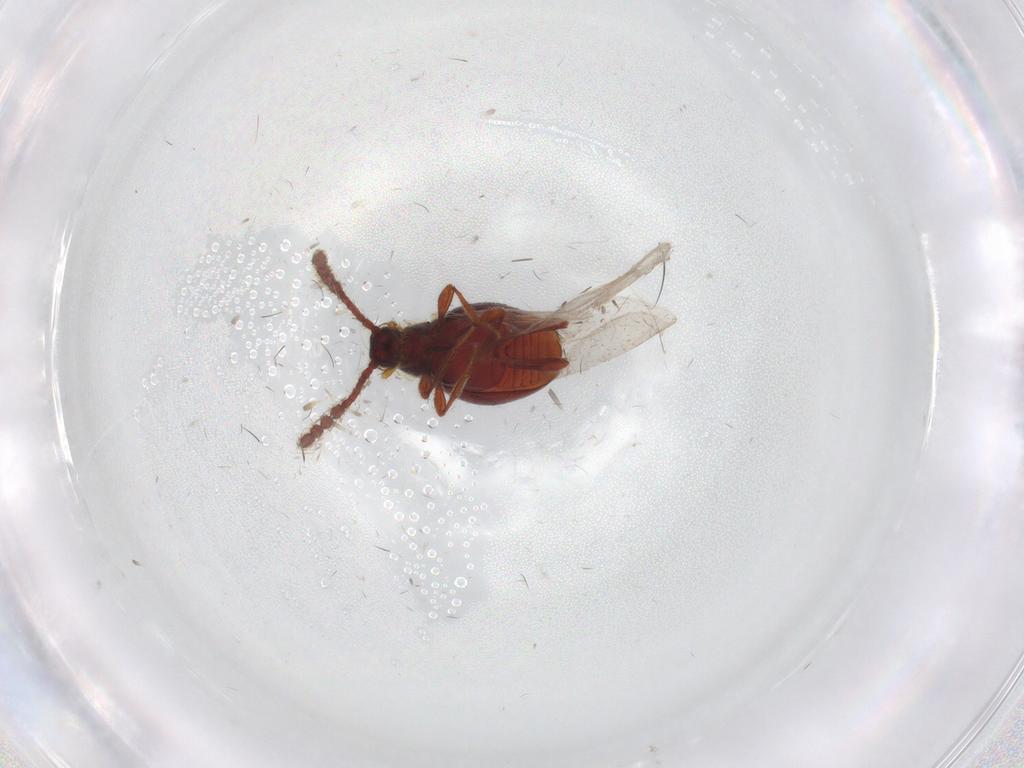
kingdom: Animalia
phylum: Arthropoda
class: Insecta
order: Coleoptera
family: Staphylinidae
